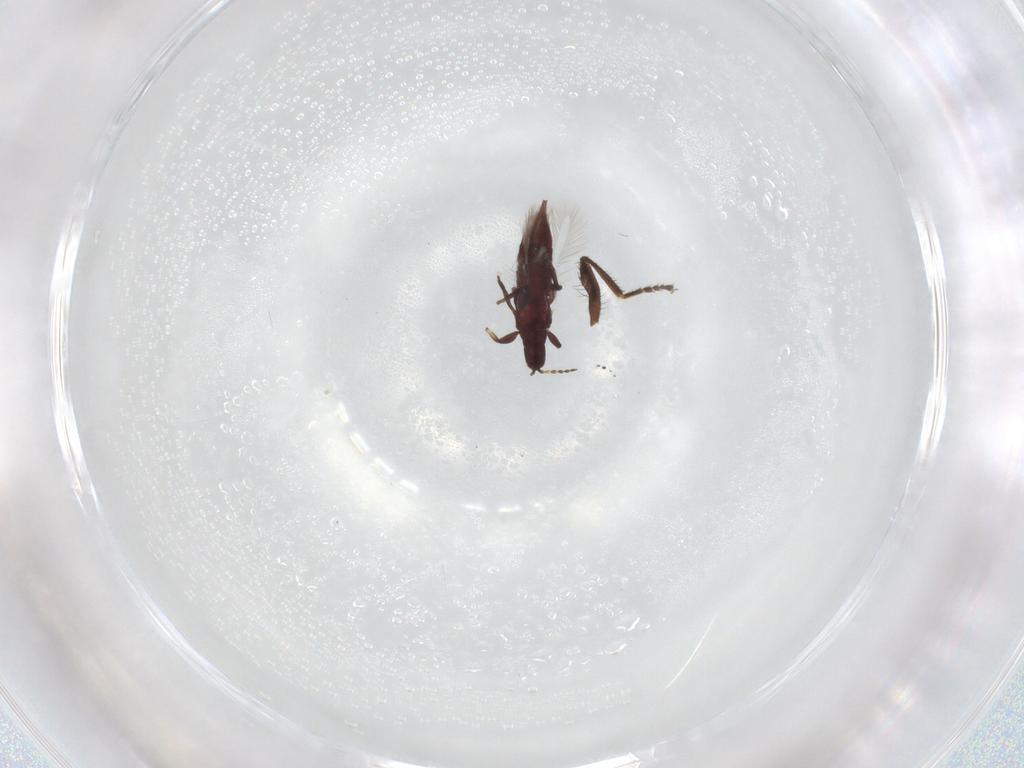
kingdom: Animalia
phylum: Arthropoda
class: Insecta
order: Thysanoptera
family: Phlaeothripidae
